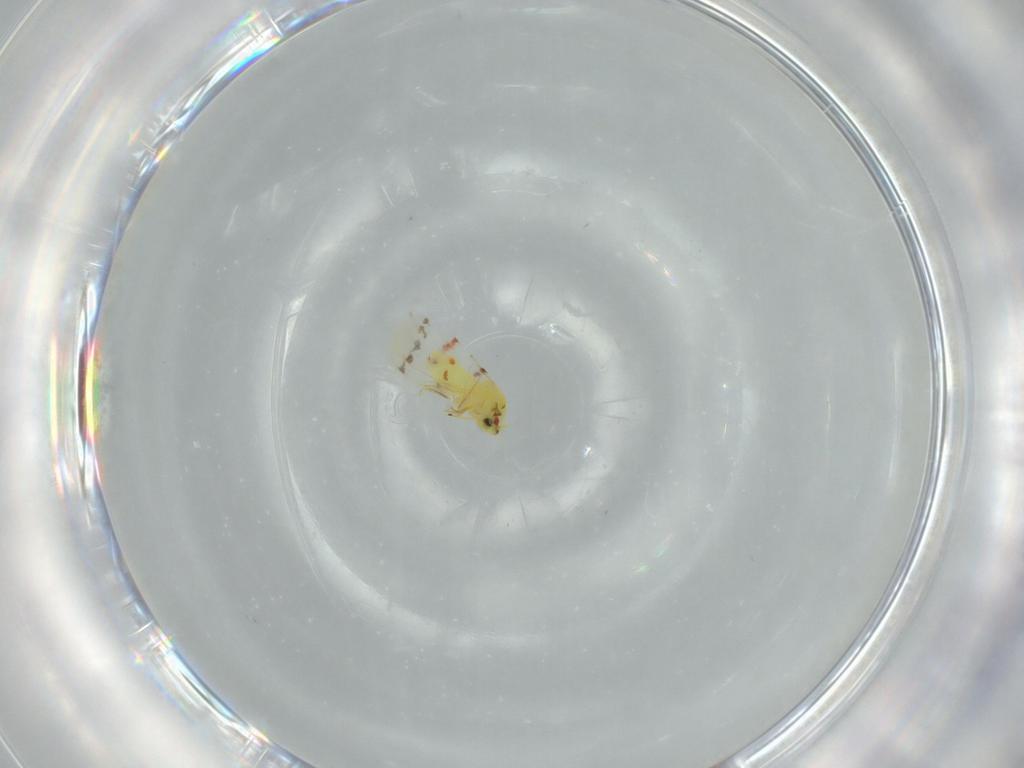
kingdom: Animalia
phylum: Arthropoda
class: Insecta
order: Hemiptera
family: Aleyrodidae
